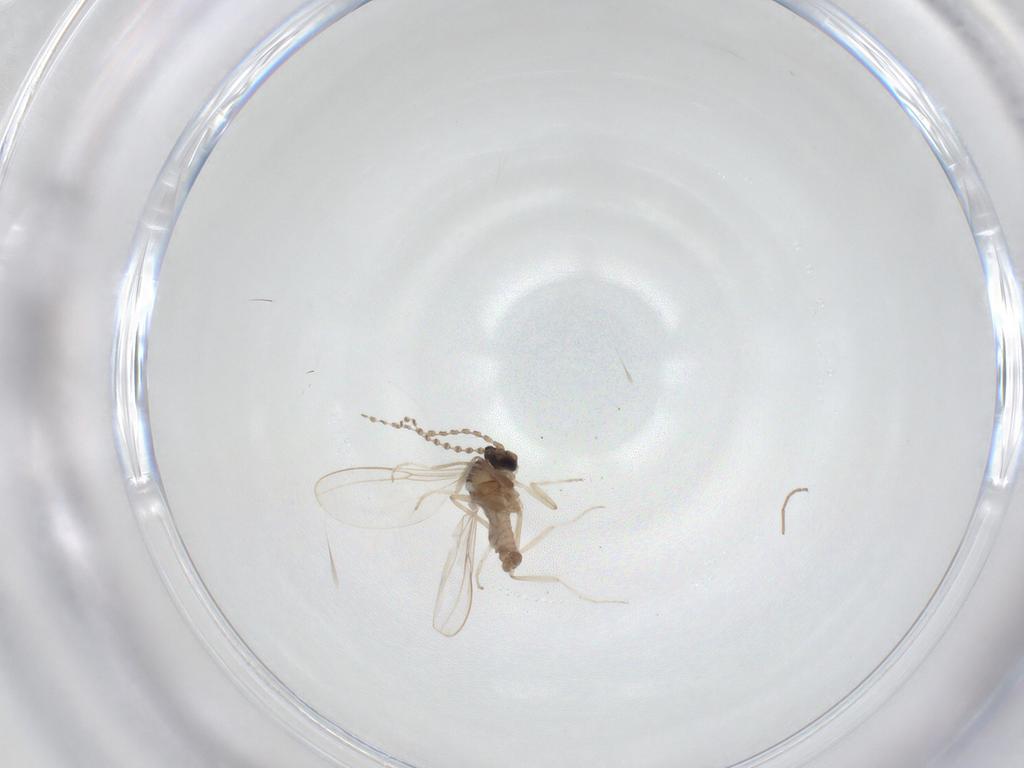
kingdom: Animalia
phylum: Arthropoda
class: Insecta
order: Diptera
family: Cecidomyiidae
